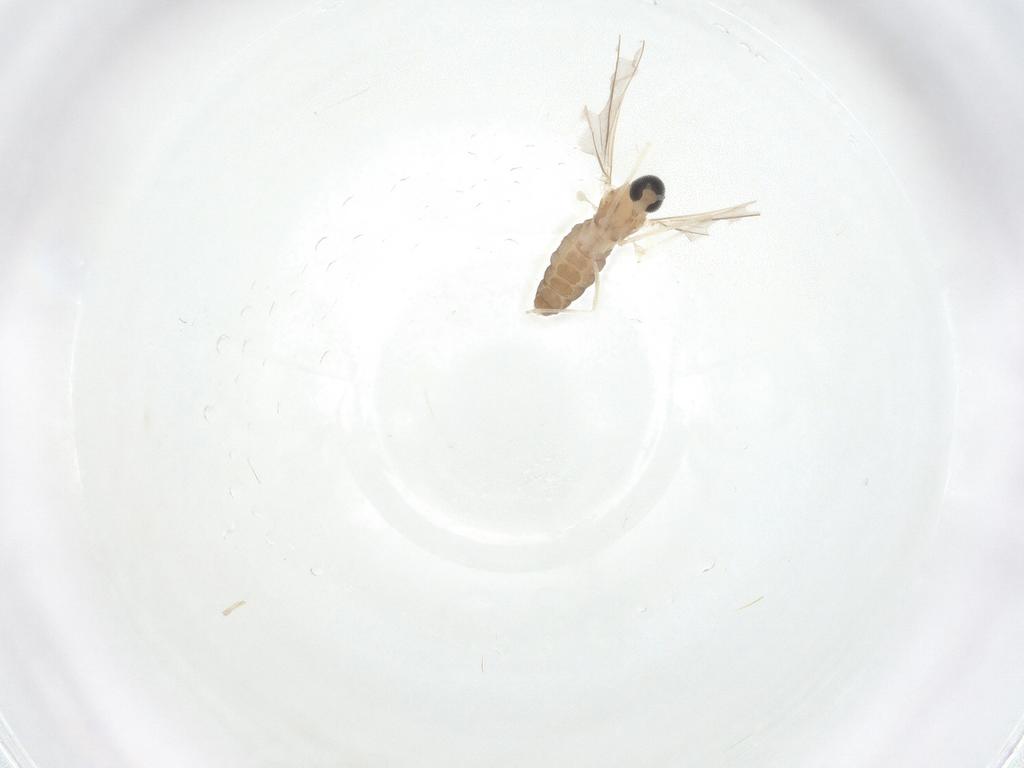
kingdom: Animalia
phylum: Arthropoda
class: Insecta
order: Diptera
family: Cecidomyiidae
